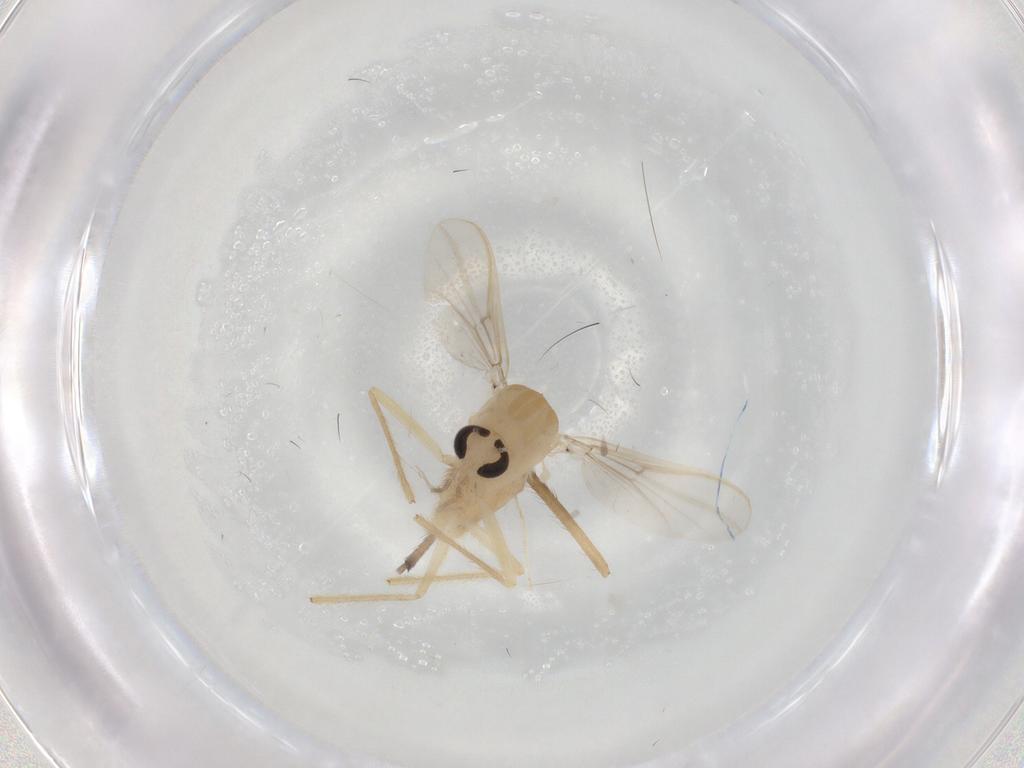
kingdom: Animalia
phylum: Arthropoda
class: Insecta
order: Diptera
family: Chironomidae
